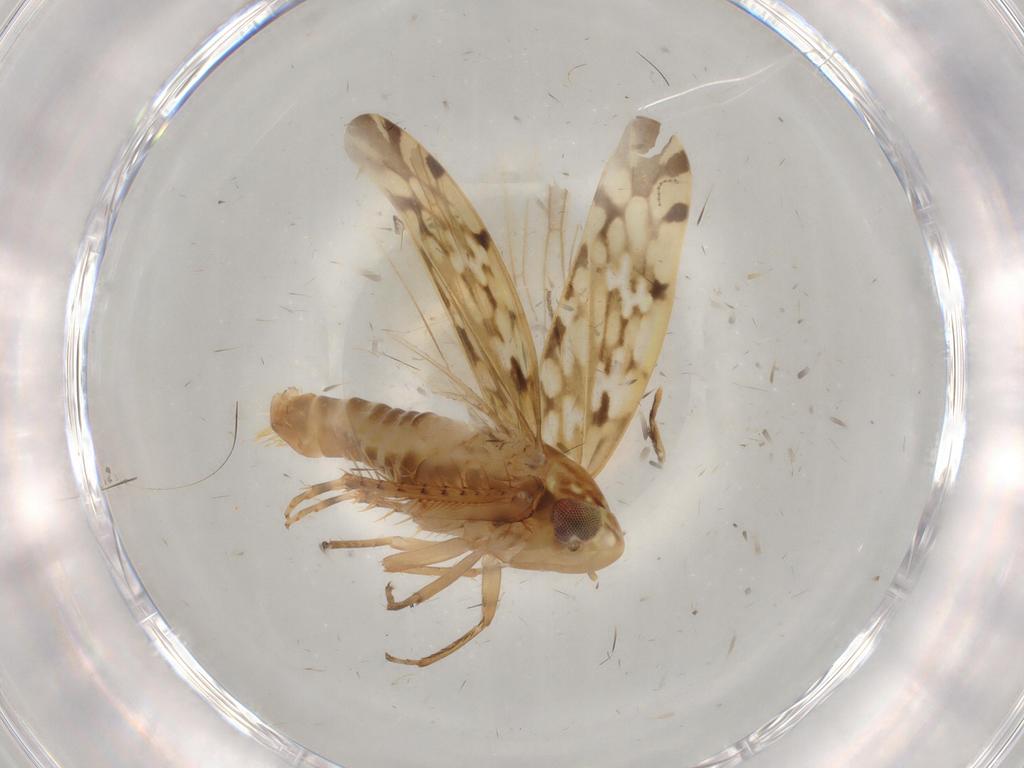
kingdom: Animalia
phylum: Arthropoda
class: Insecta
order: Hemiptera
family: Cicadellidae
